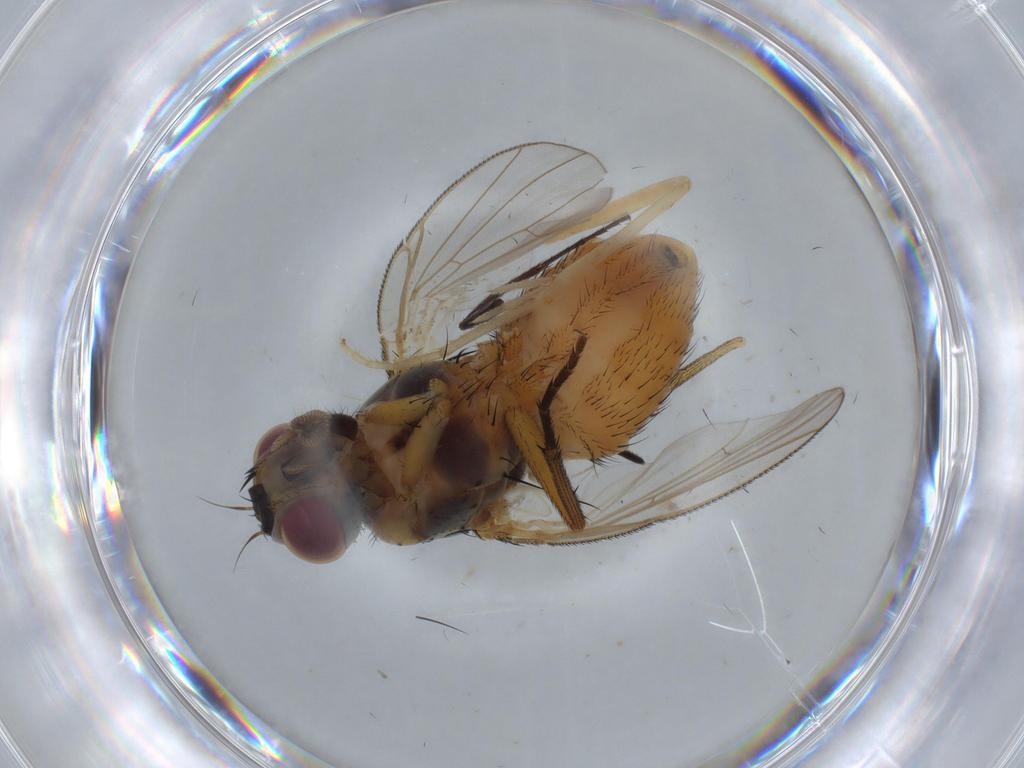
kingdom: Animalia
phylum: Arthropoda
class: Insecta
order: Diptera
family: Muscidae
